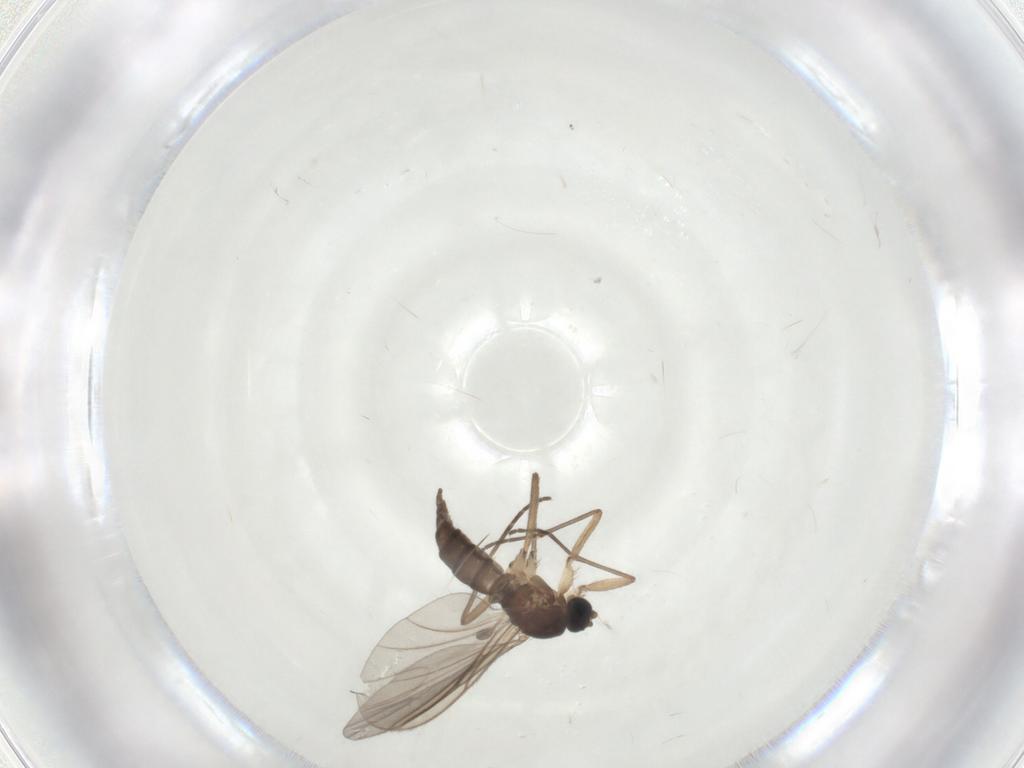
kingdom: Animalia
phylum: Arthropoda
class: Insecta
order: Diptera
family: Sciaridae
